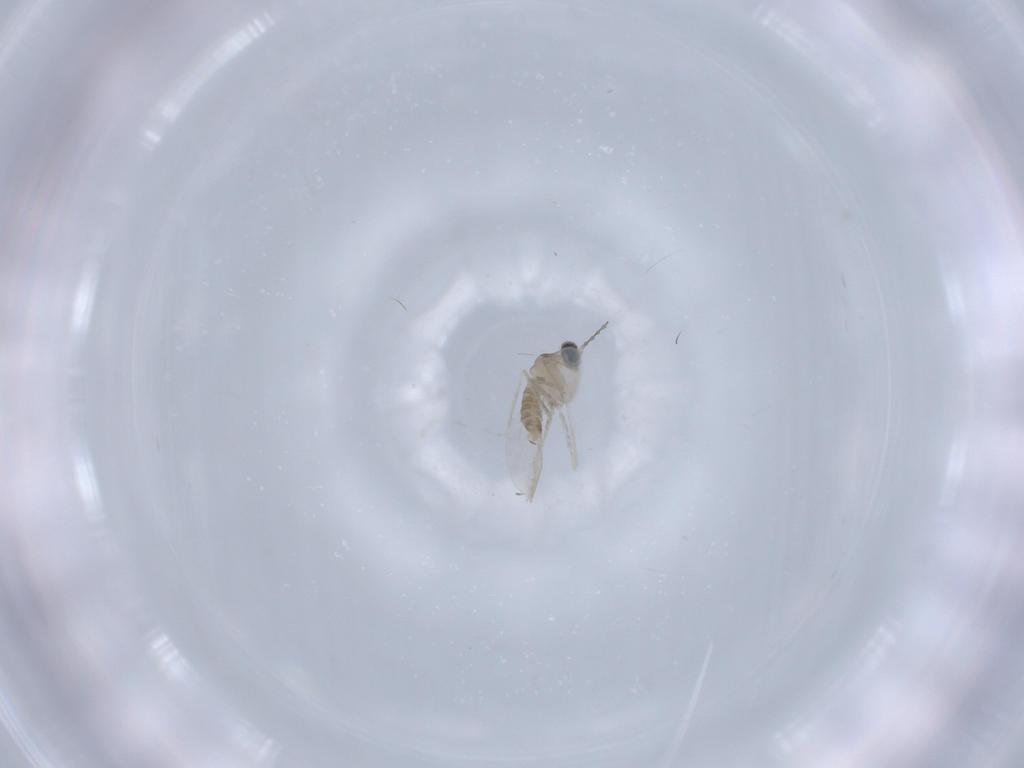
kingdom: Animalia
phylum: Arthropoda
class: Insecta
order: Diptera
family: Cecidomyiidae
